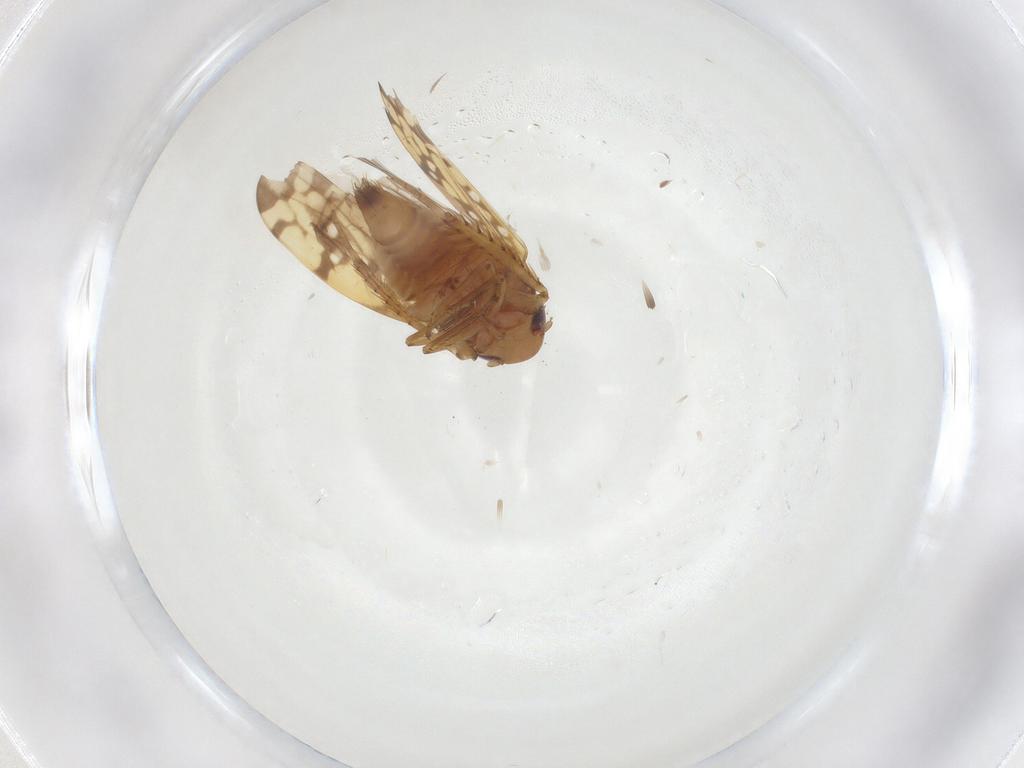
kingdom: Animalia
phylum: Arthropoda
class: Insecta
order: Hemiptera
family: Cicadellidae
